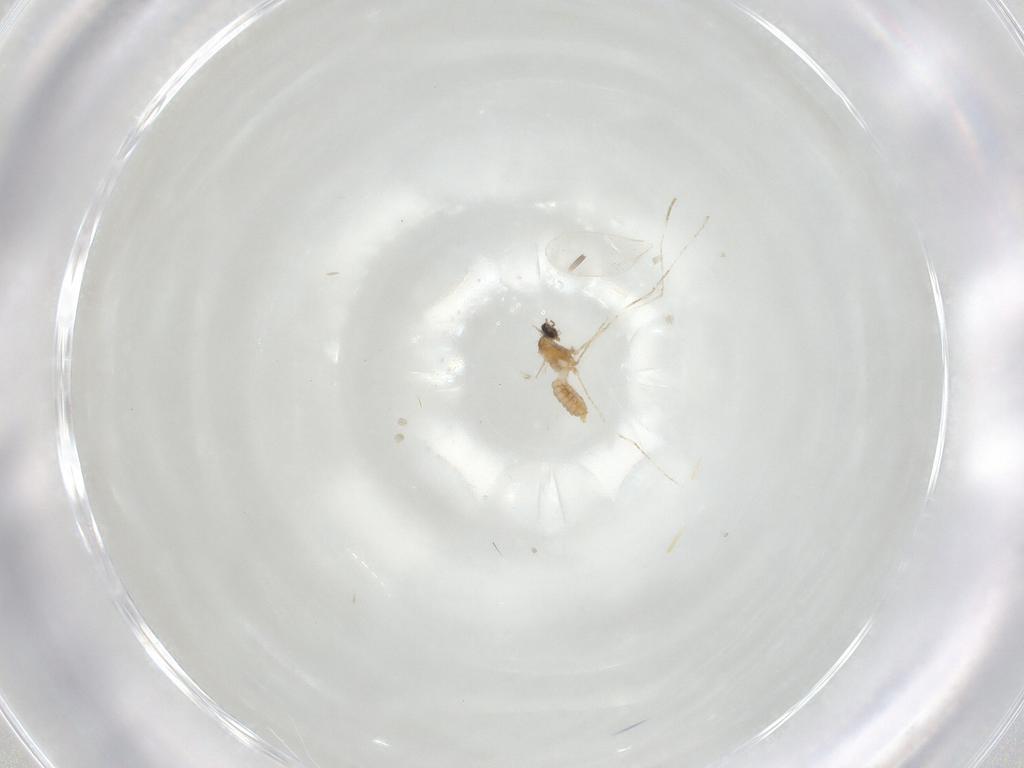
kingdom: Animalia
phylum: Arthropoda
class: Insecta
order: Diptera
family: Cecidomyiidae
